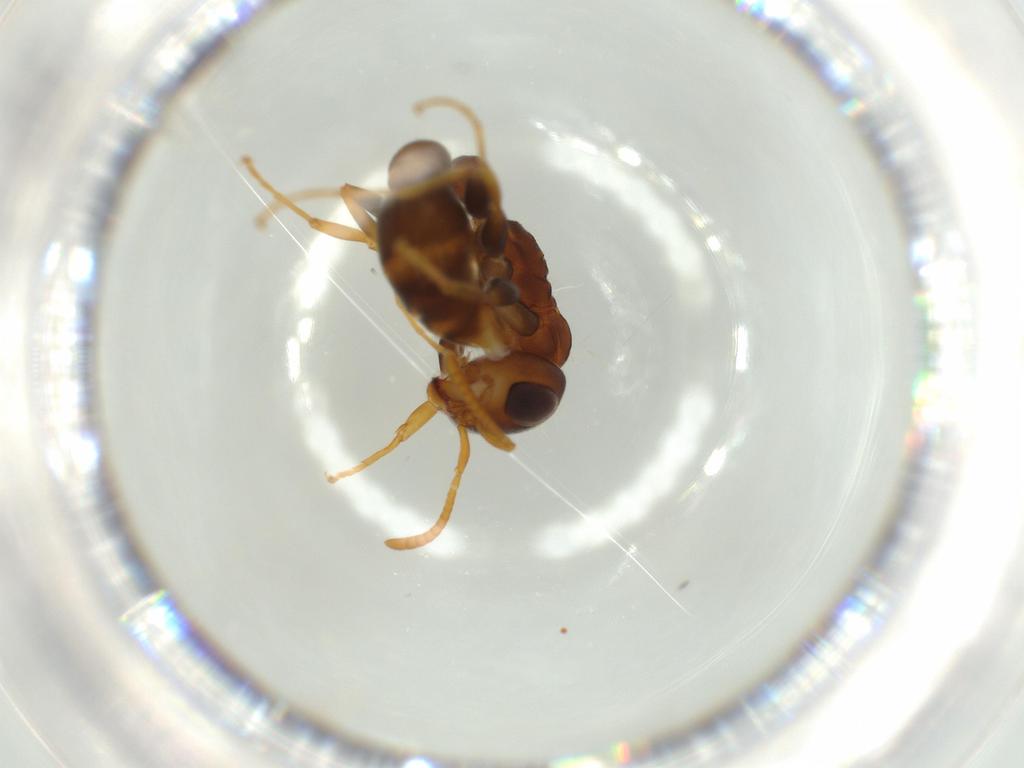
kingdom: Animalia
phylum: Arthropoda
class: Insecta
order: Hymenoptera
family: Formicidae
